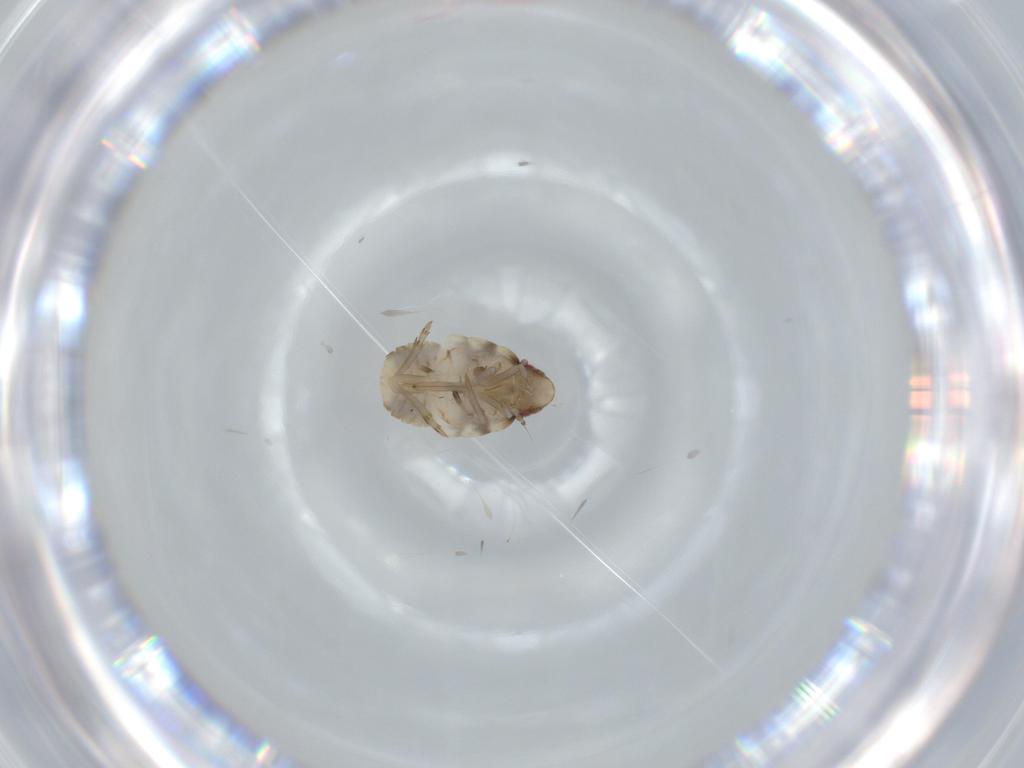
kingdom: Animalia
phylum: Arthropoda
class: Insecta
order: Hemiptera
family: Flatidae
